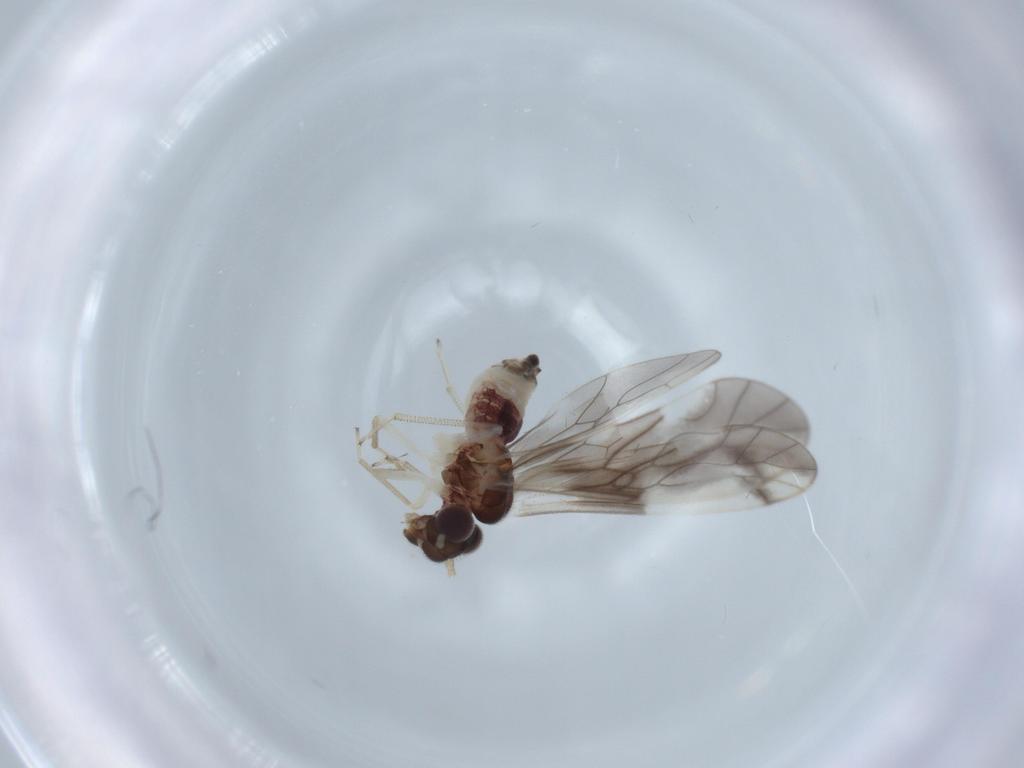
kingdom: Animalia
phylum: Arthropoda
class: Insecta
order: Psocodea
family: Caeciliusidae
